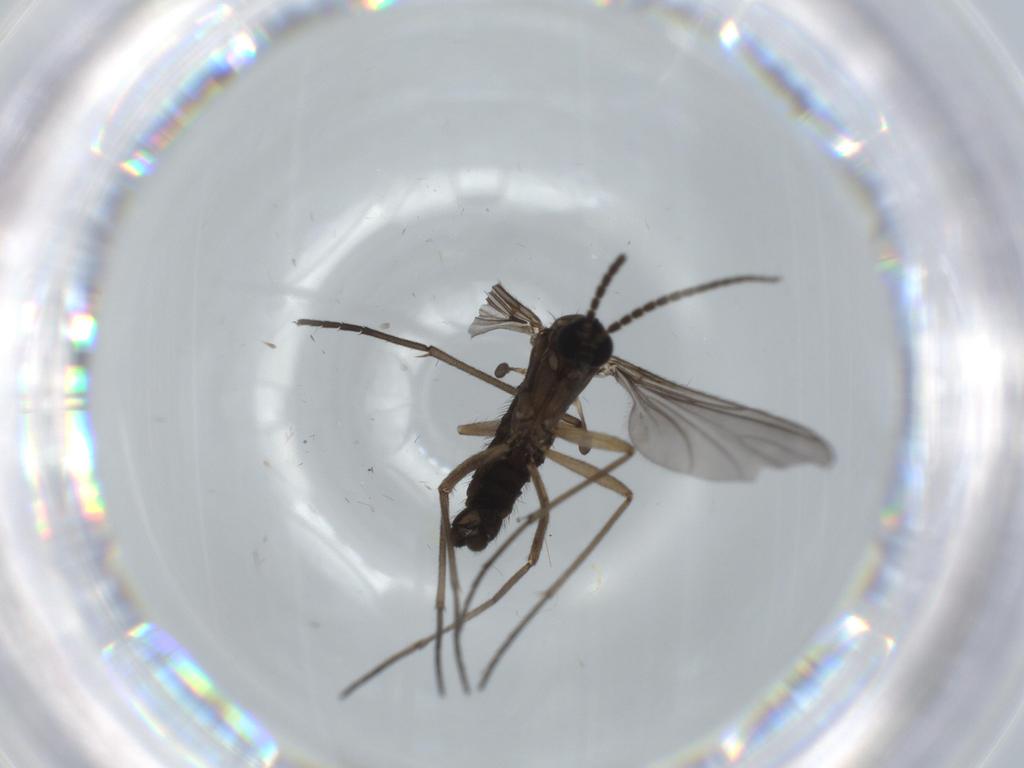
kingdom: Animalia
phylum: Arthropoda
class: Insecta
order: Diptera
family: Sciaridae
